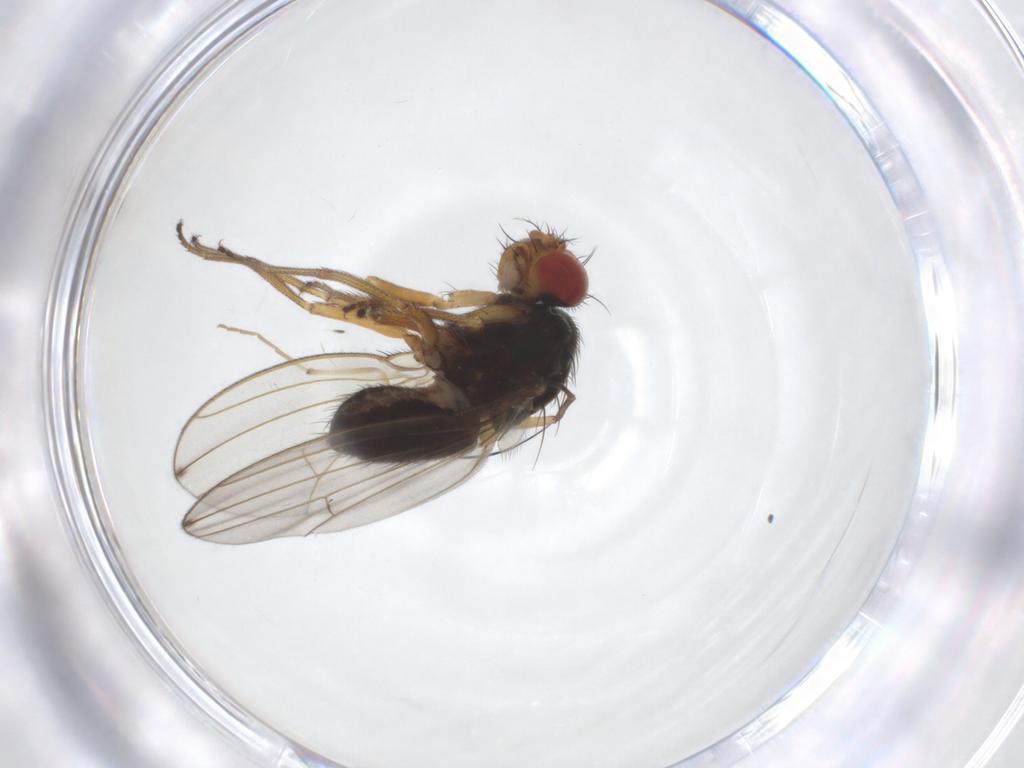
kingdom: Animalia
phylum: Arthropoda
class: Insecta
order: Diptera
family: Drosophilidae
